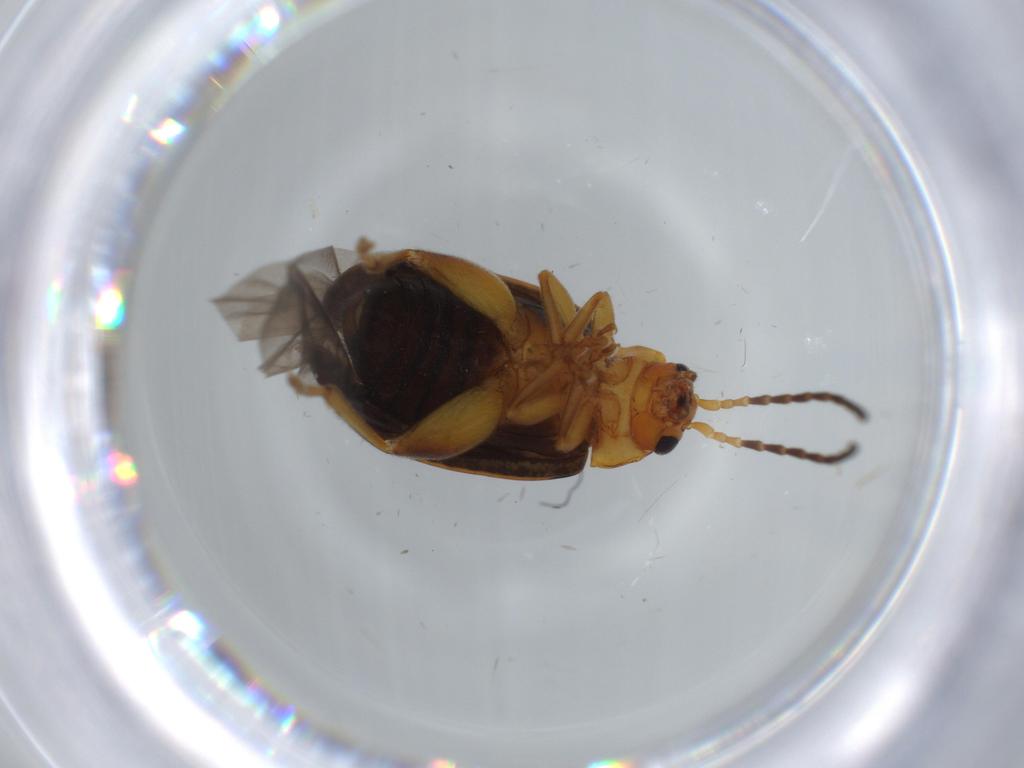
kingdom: Animalia
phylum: Arthropoda
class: Insecta
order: Coleoptera
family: Chrysomelidae
